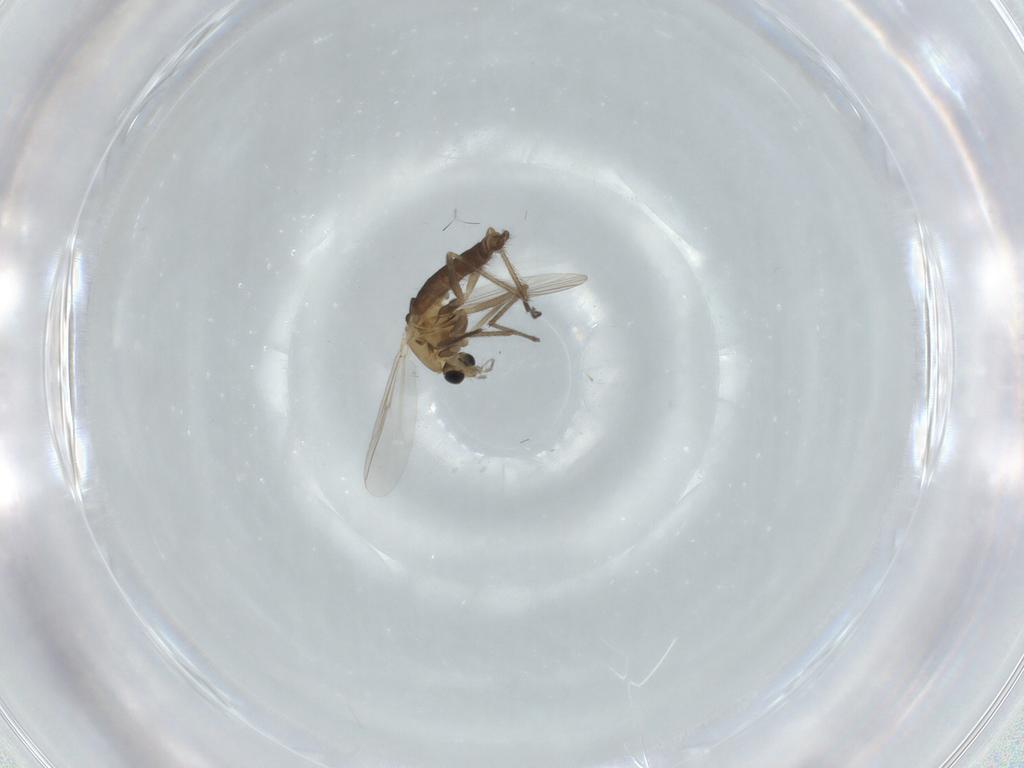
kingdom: Animalia
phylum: Arthropoda
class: Insecta
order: Diptera
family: Chironomidae
